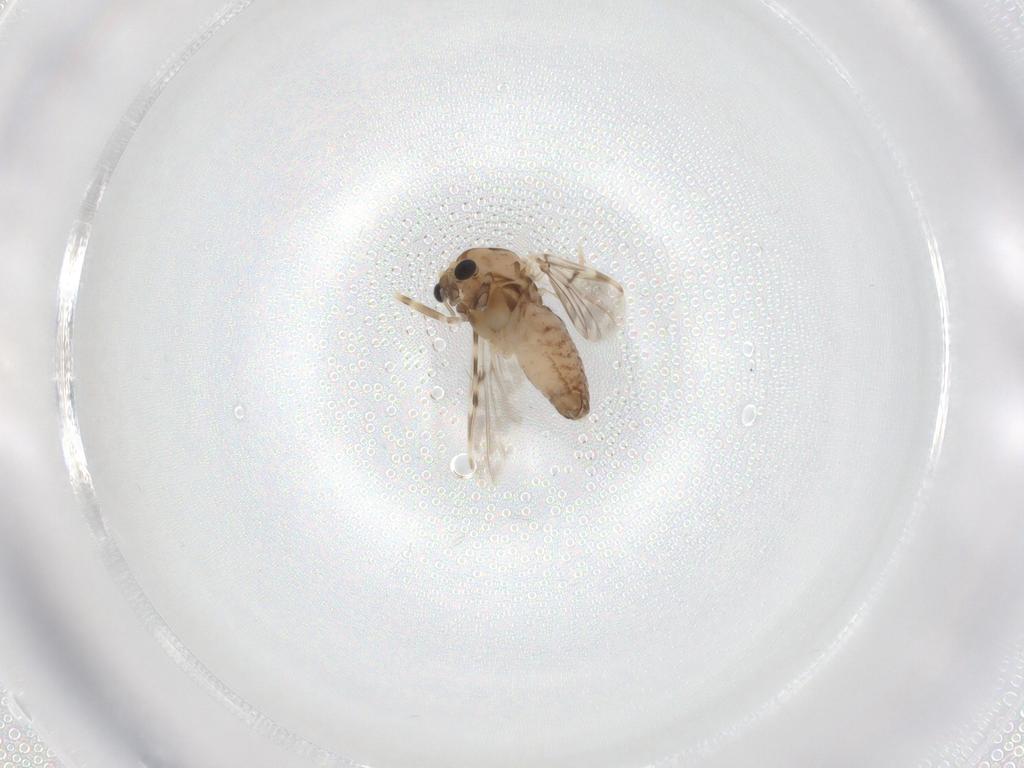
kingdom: Animalia
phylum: Arthropoda
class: Insecta
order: Diptera
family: Chironomidae
